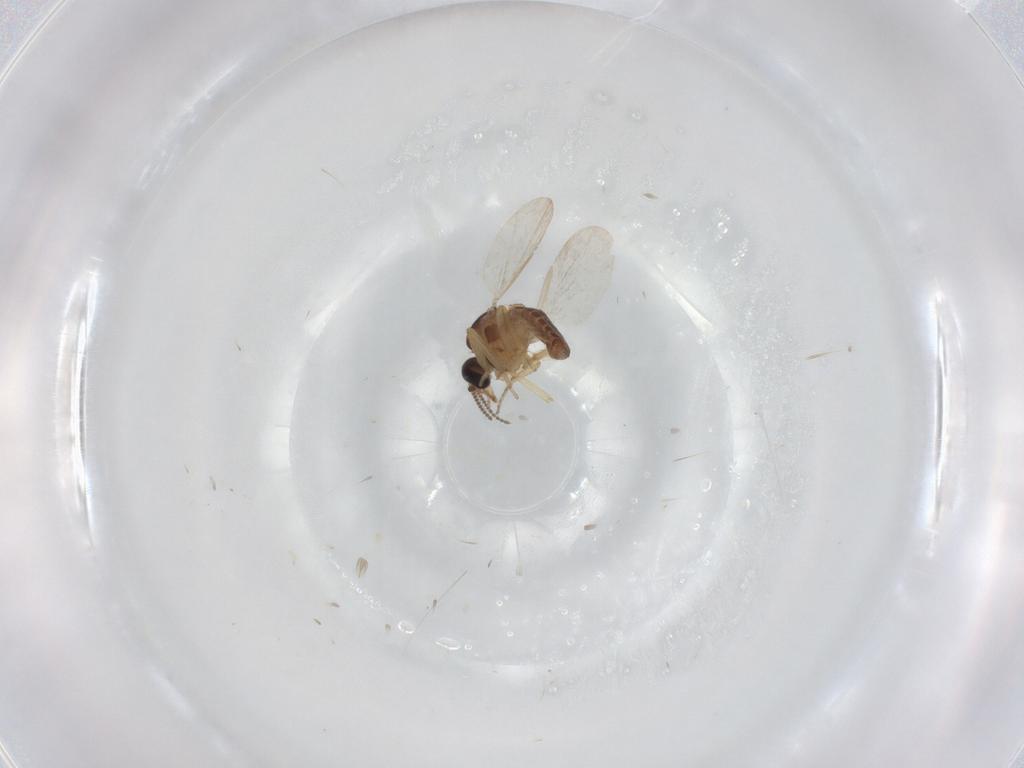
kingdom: Animalia
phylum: Arthropoda
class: Insecta
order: Diptera
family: Ceratopogonidae
